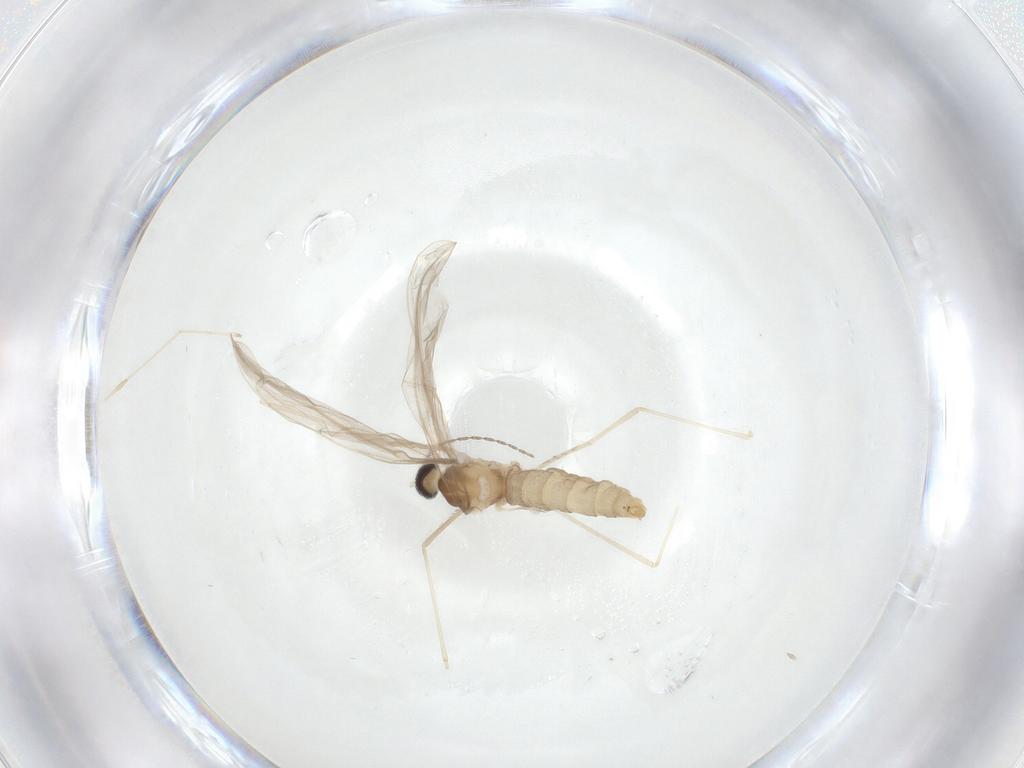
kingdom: Animalia
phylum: Arthropoda
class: Insecta
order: Diptera
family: Cecidomyiidae
